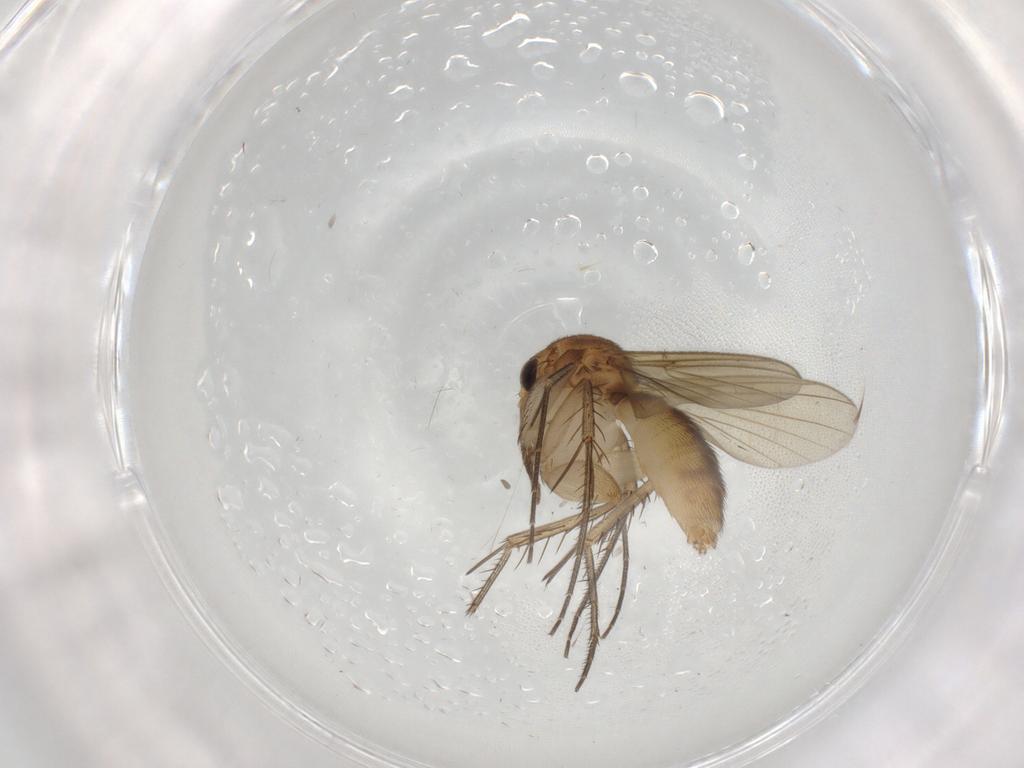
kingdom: Animalia
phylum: Arthropoda
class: Insecta
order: Diptera
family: Mycetophilidae
